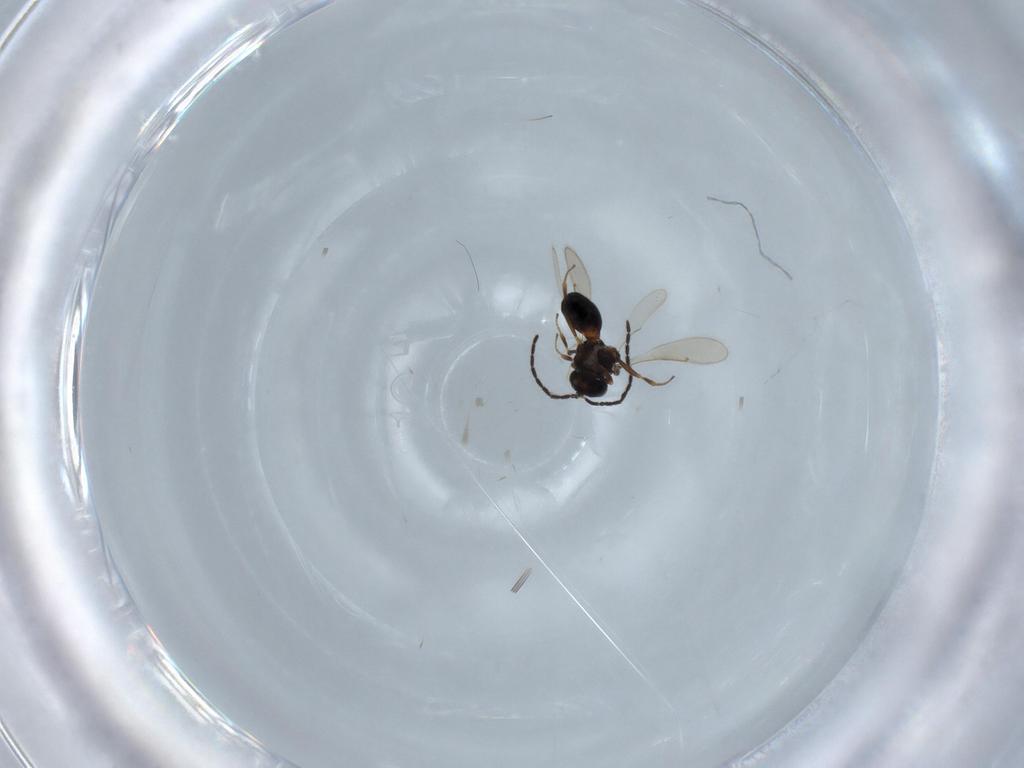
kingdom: Animalia
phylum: Arthropoda
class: Insecta
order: Hymenoptera
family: Scelionidae
